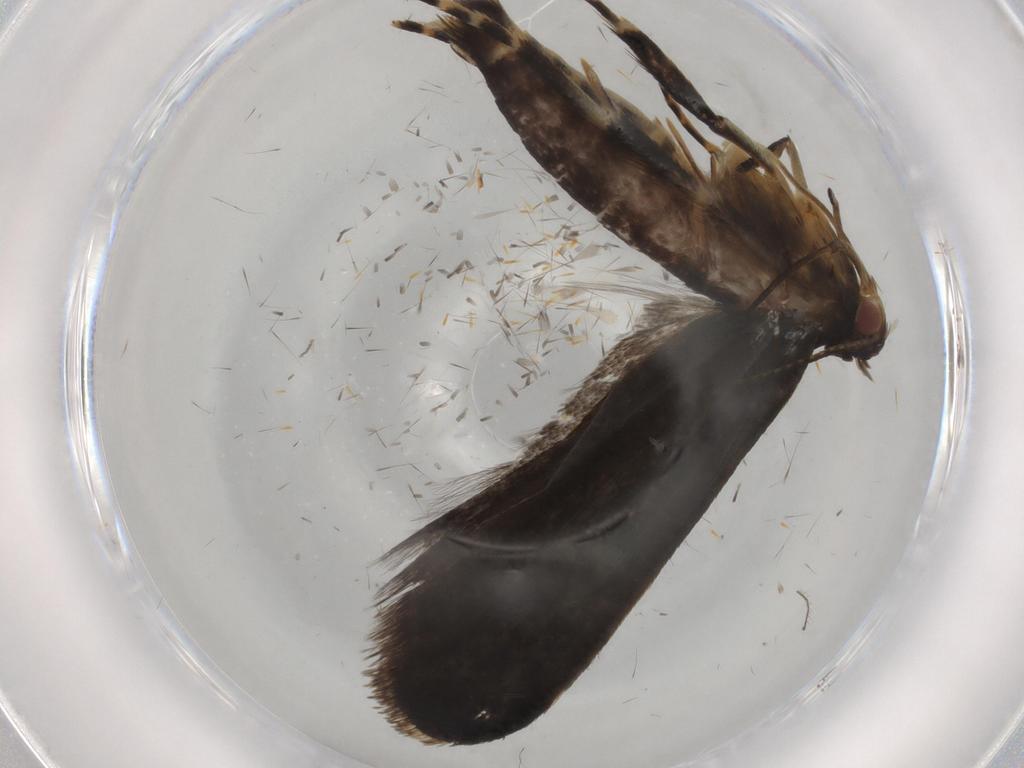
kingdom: Animalia
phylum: Arthropoda
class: Insecta
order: Lepidoptera
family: Gelechiidae
